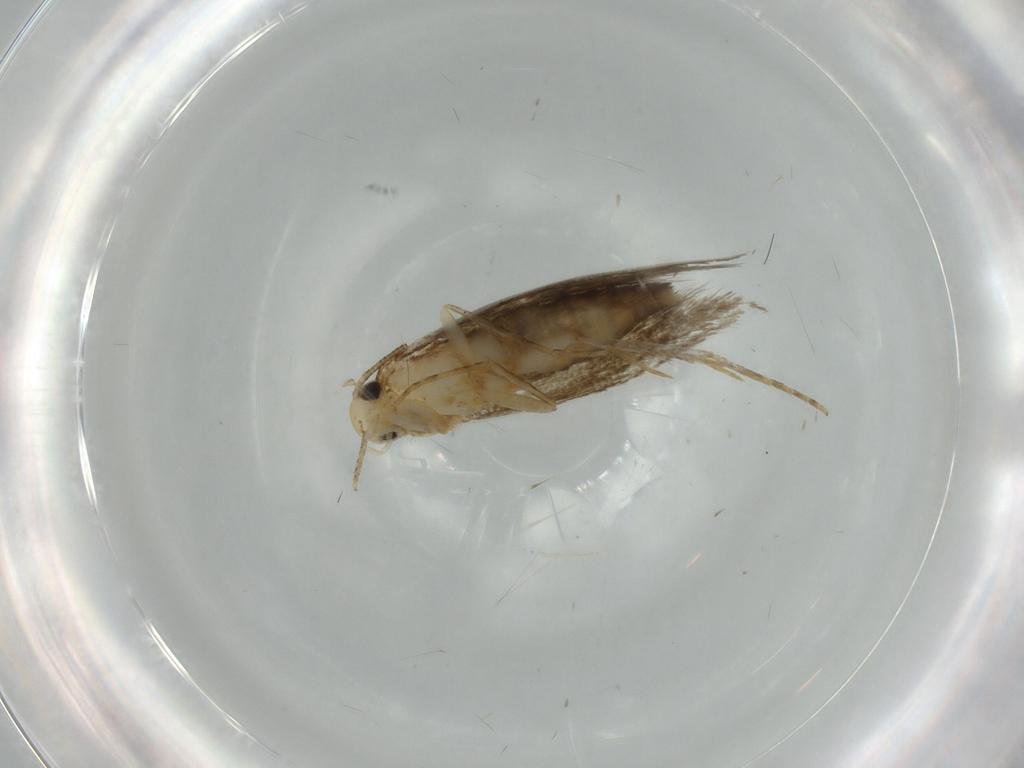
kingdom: Animalia
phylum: Arthropoda
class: Insecta
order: Lepidoptera
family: Tineidae
